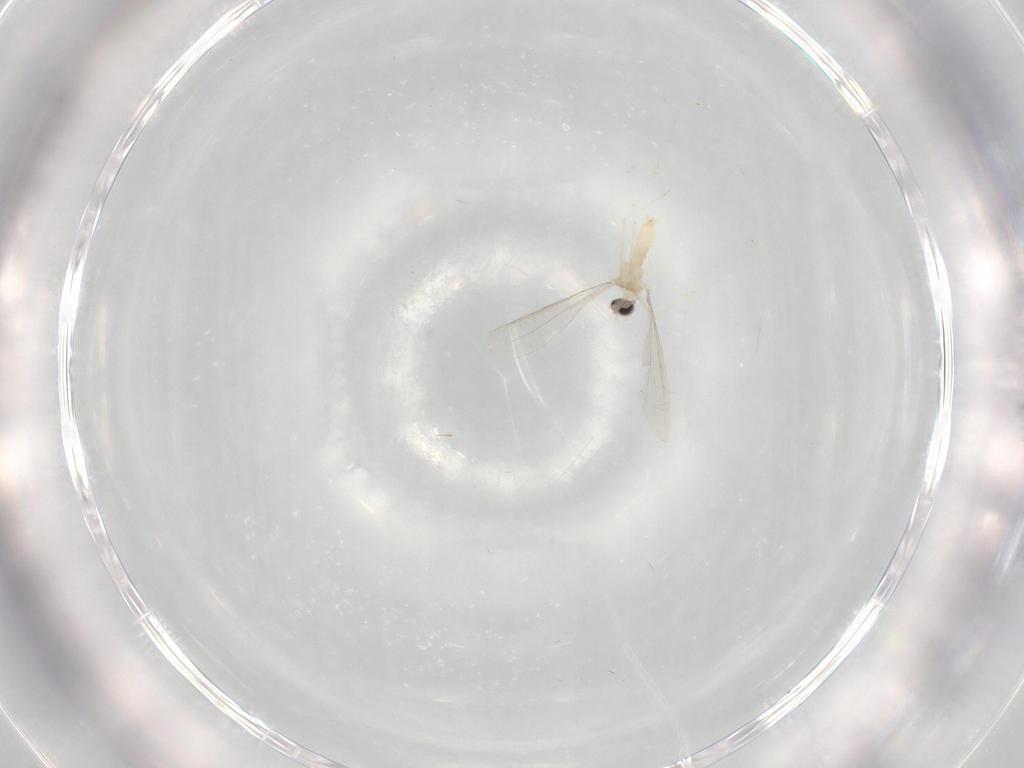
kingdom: Animalia
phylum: Arthropoda
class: Insecta
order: Diptera
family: Cecidomyiidae
